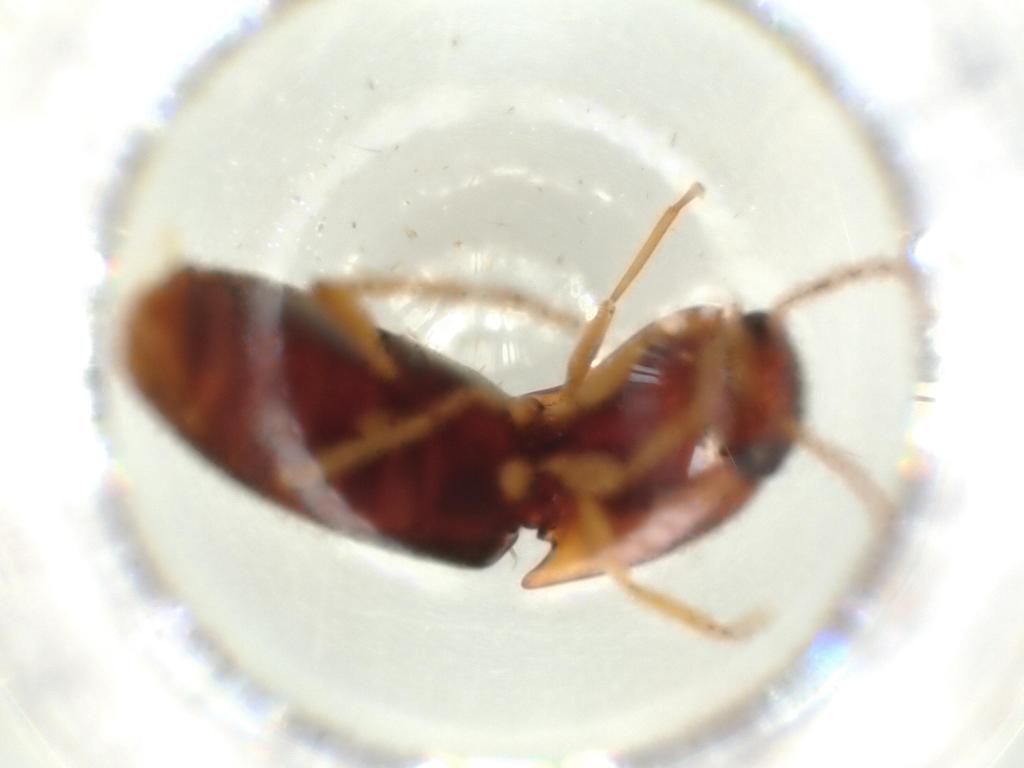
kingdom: Animalia
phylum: Arthropoda
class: Insecta
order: Coleoptera
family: Elateridae
